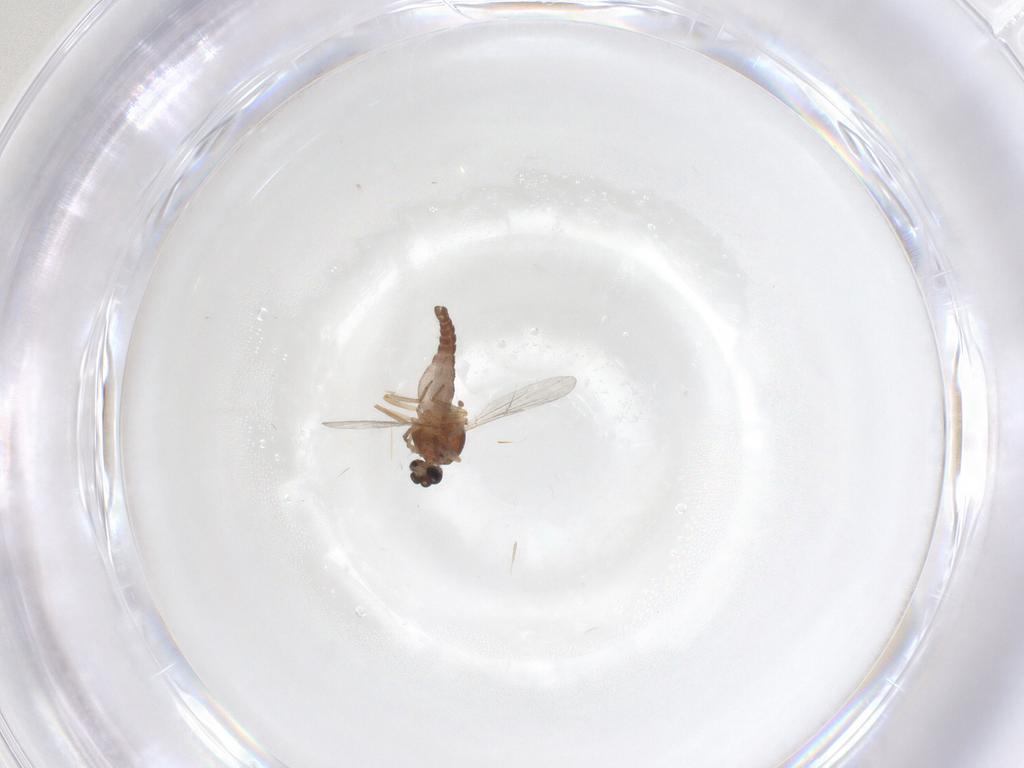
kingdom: Animalia
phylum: Arthropoda
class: Insecta
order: Diptera
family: Ceratopogonidae
